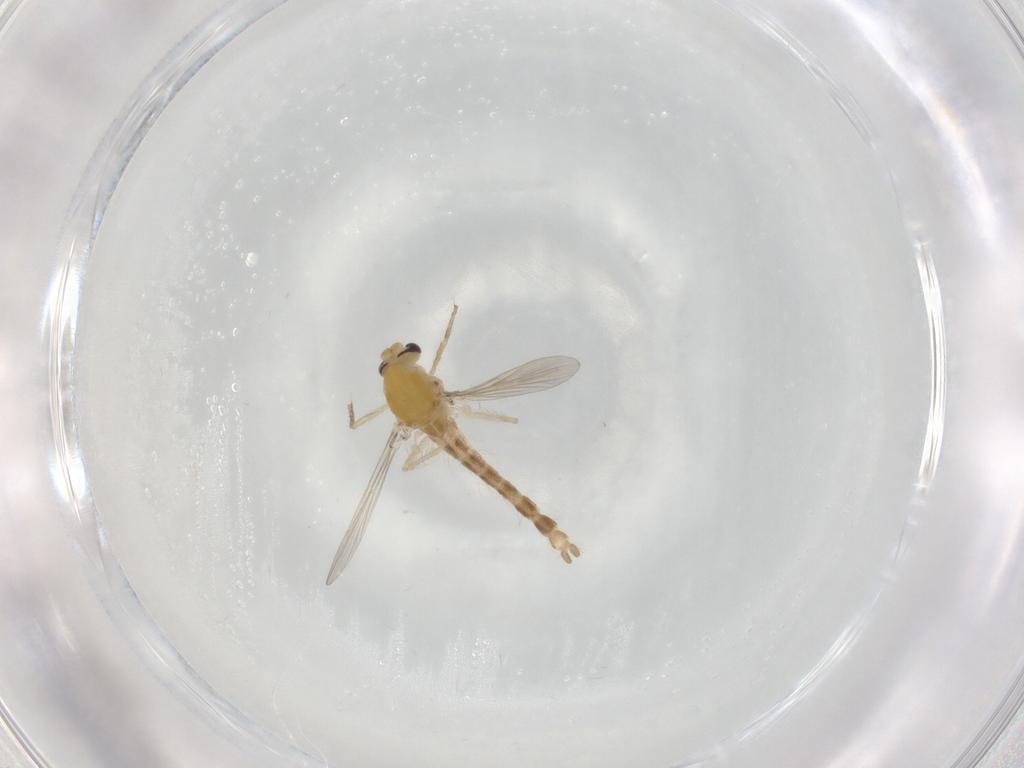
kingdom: Animalia
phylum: Arthropoda
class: Insecta
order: Diptera
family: Chironomidae
